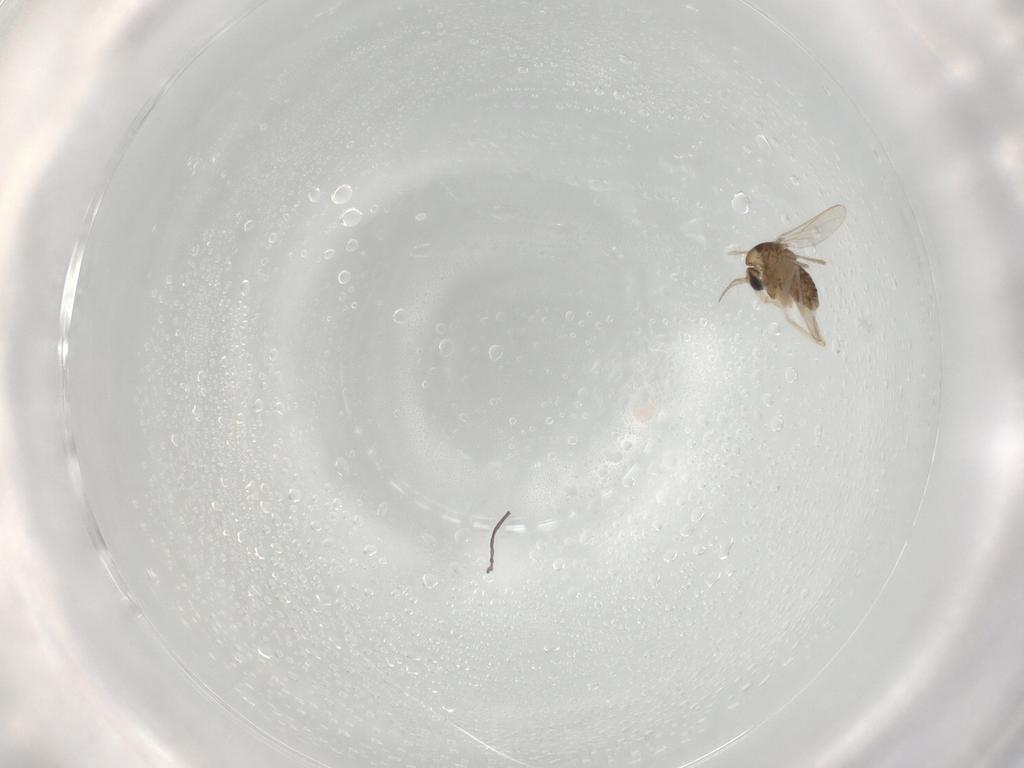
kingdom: Animalia
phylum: Arthropoda
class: Insecta
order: Diptera
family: Chironomidae
